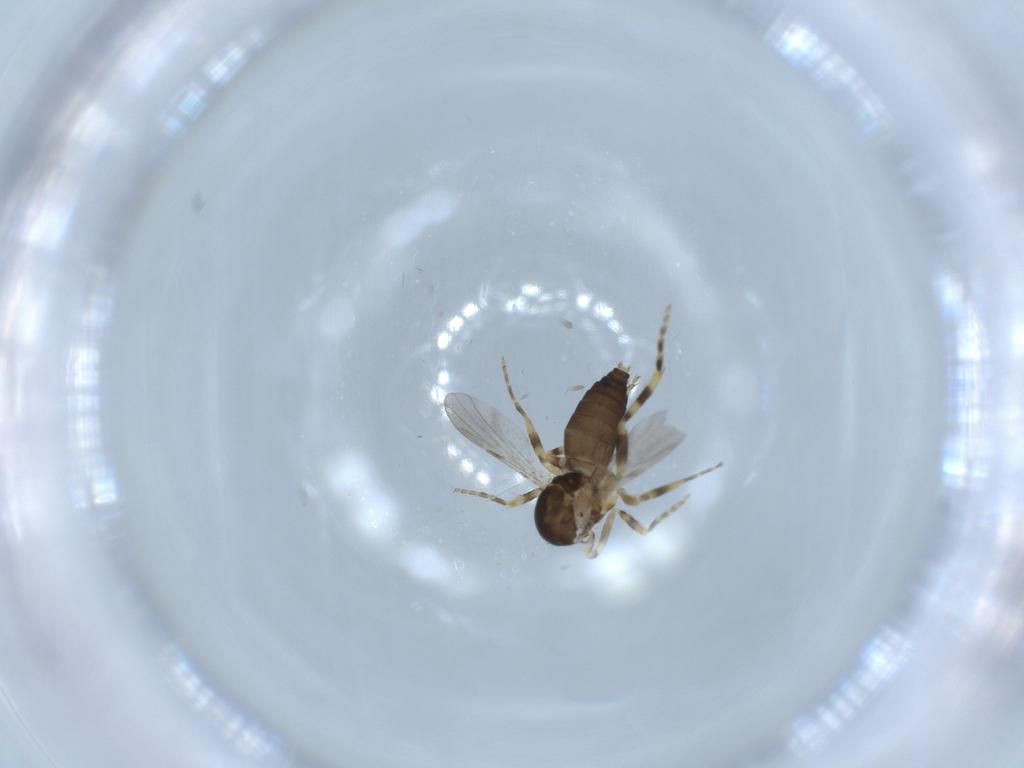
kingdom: Animalia
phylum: Arthropoda
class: Insecta
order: Diptera
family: Ceratopogonidae
